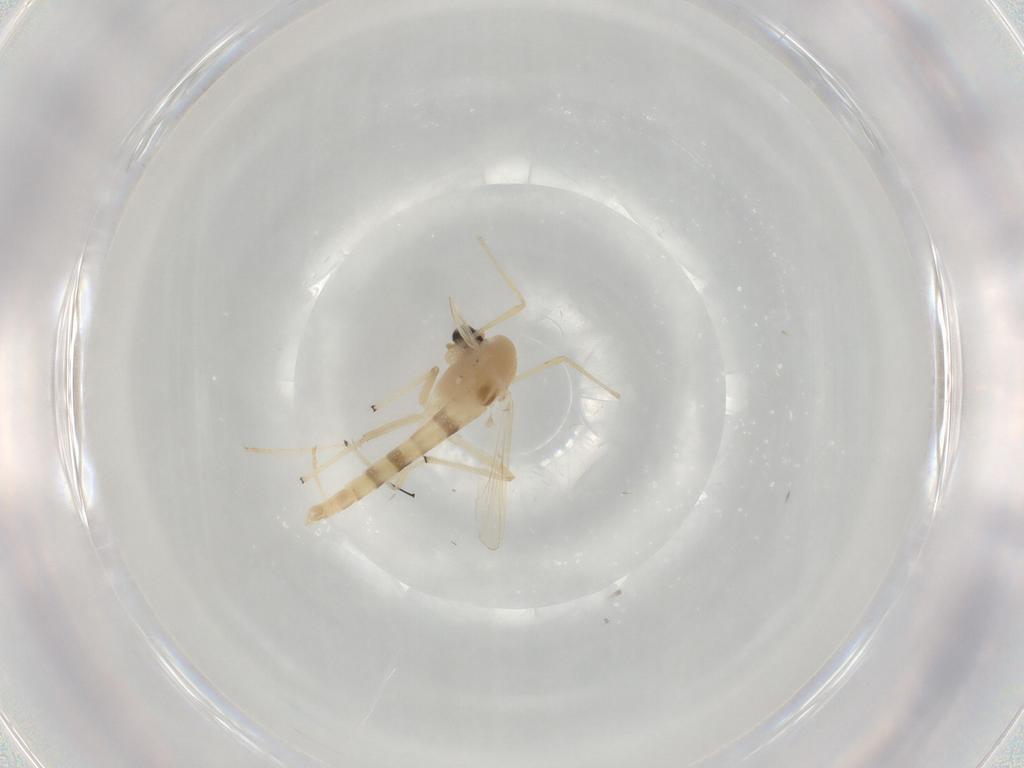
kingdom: Animalia
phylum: Arthropoda
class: Insecta
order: Diptera
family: Chironomidae
